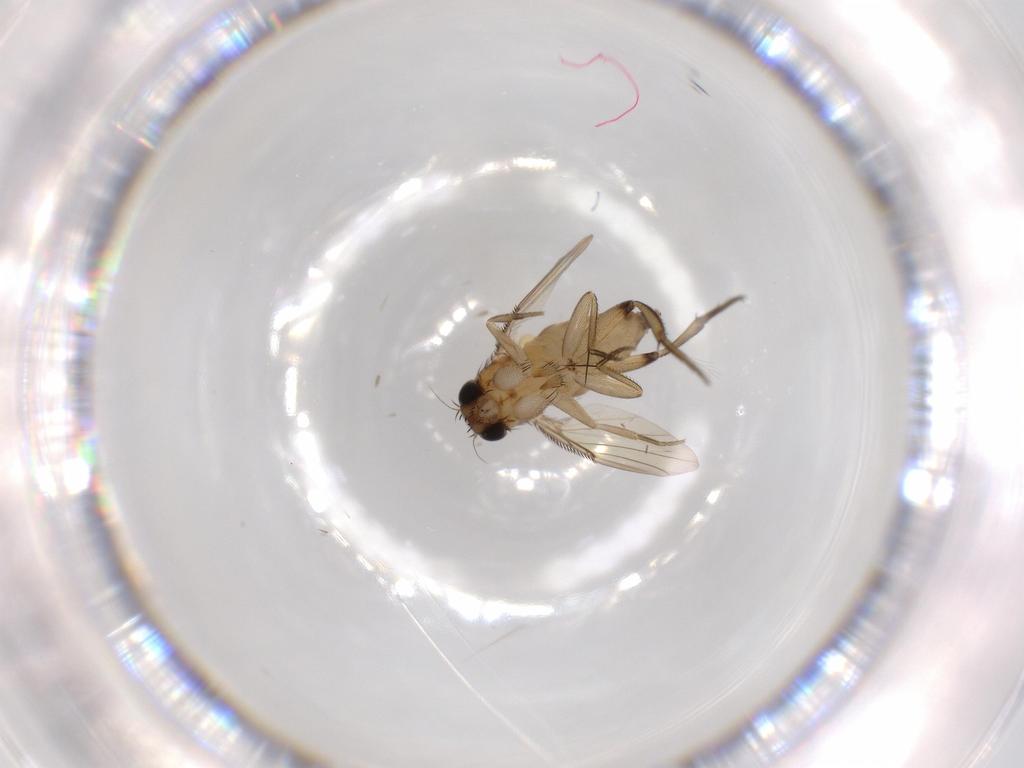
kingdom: Animalia
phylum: Arthropoda
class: Insecta
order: Diptera
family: Phoridae
